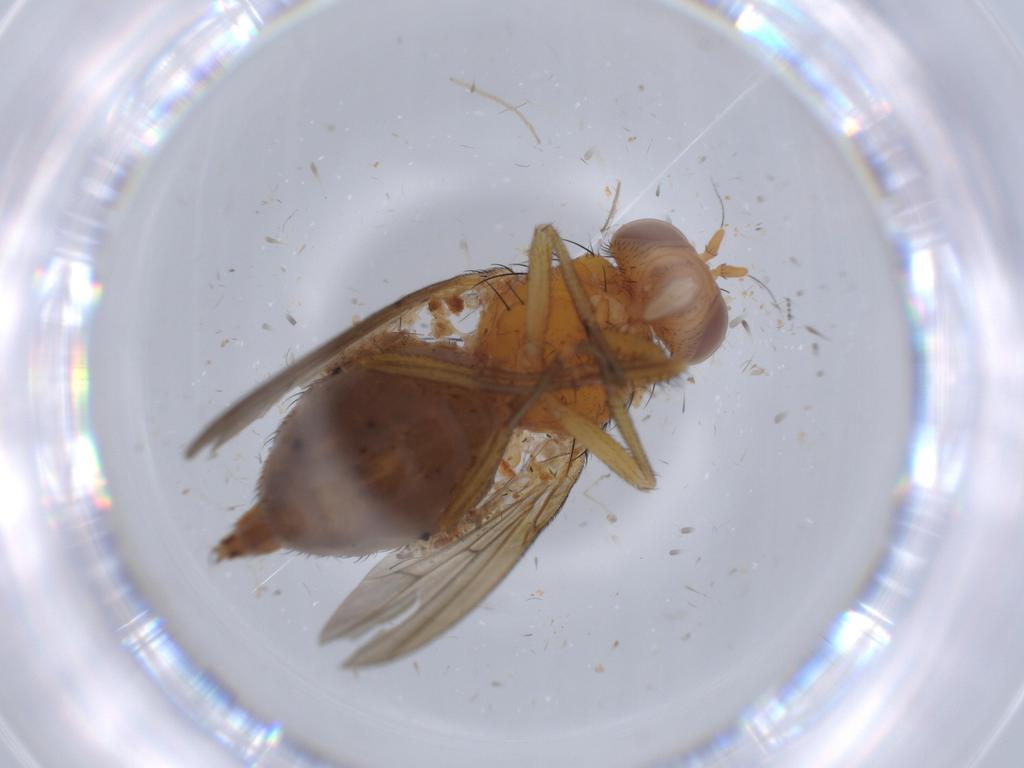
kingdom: Animalia
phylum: Arthropoda
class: Insecta
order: Diptera
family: Chironomidae
